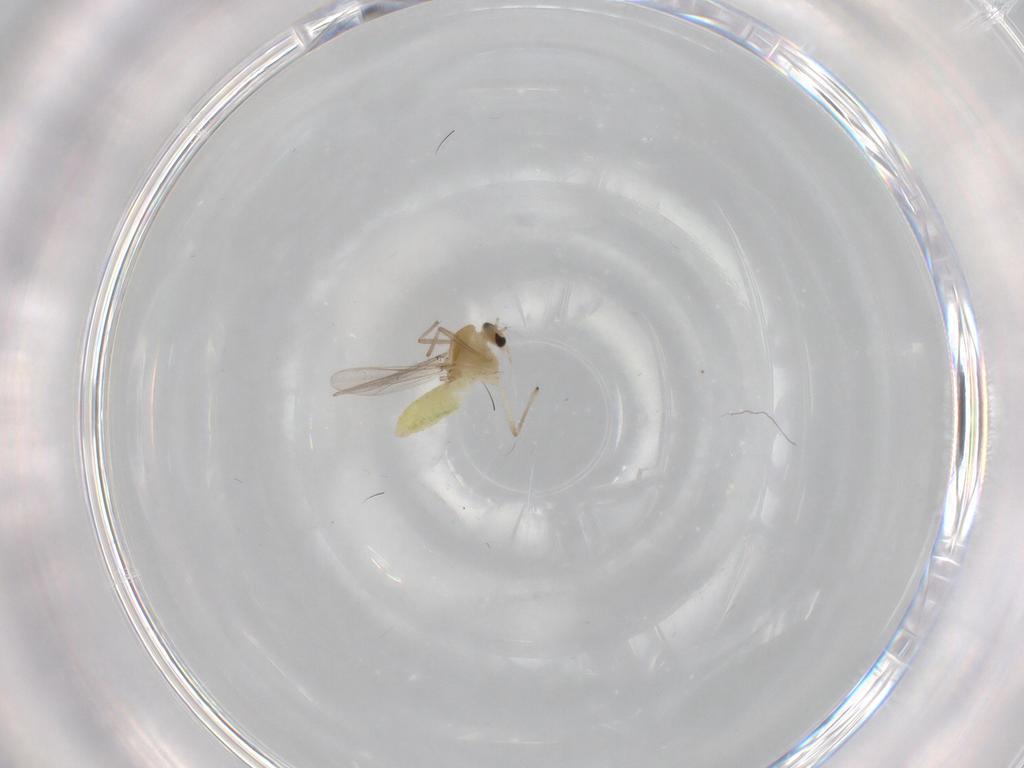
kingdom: Animalia
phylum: Arthropoda
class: Insecta
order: Diptera
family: Chironomidae
